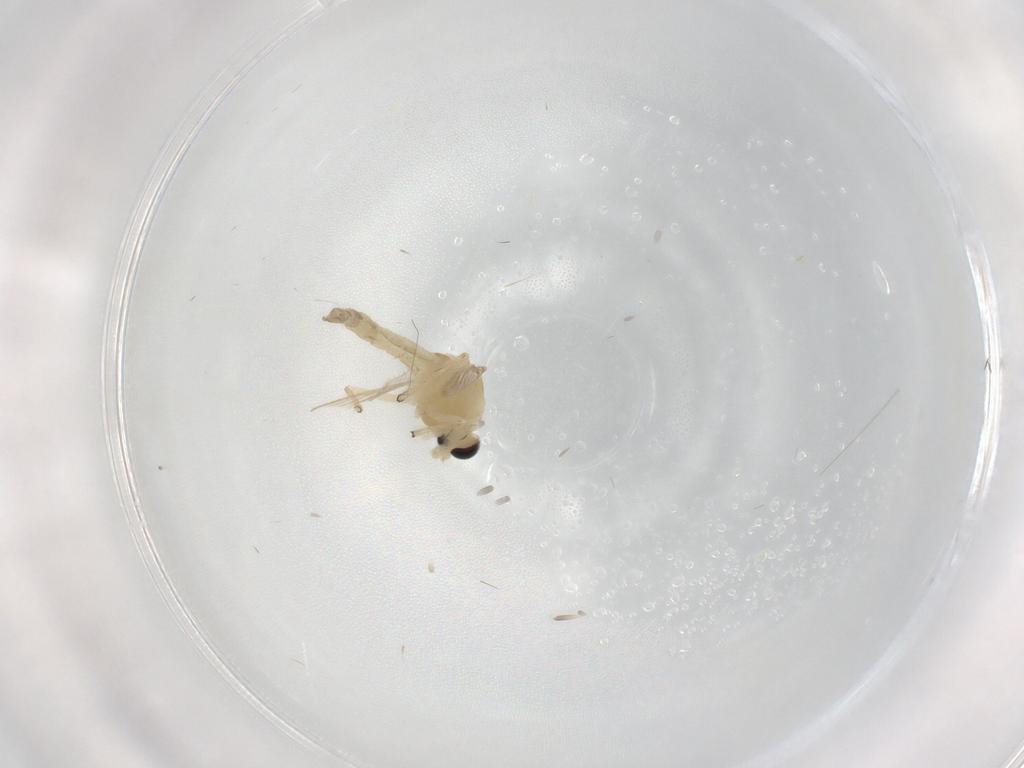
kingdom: Animalia
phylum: Arthropoda
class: Insecta
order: Diptera
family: Chironomidae
